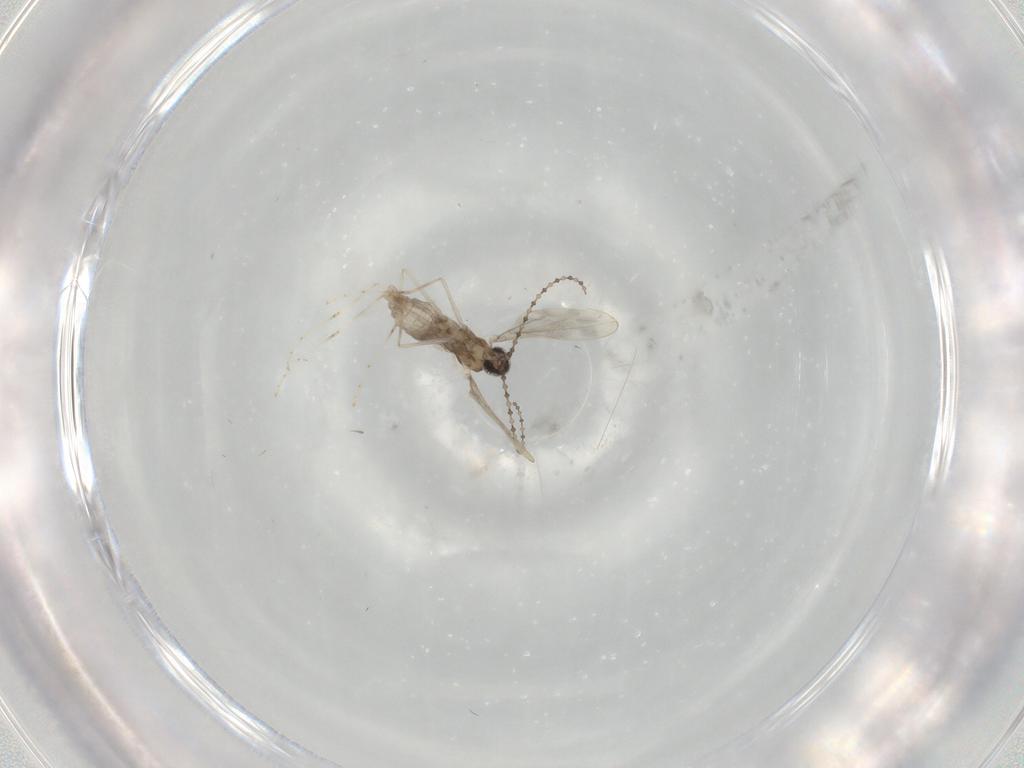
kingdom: Animalia
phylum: Arthropoda
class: Insecta
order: Diptera
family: Cecidomyiidae
